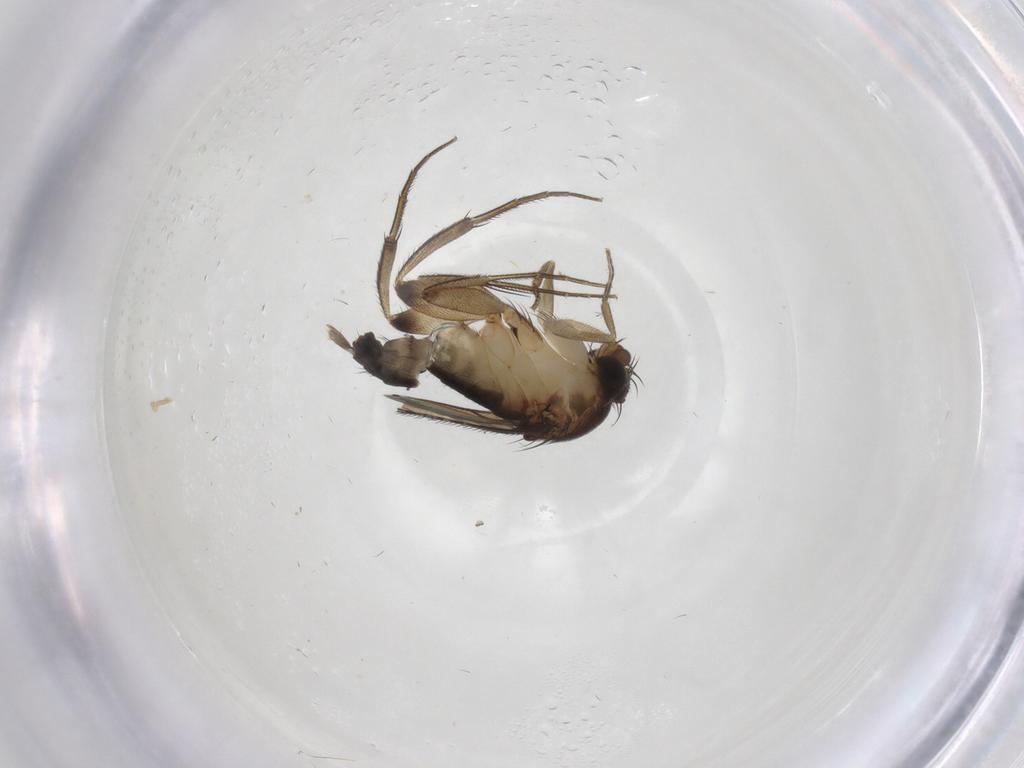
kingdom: Animalia
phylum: Arthropoda
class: Insecta
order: Diptera
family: Cecidomyiidae
